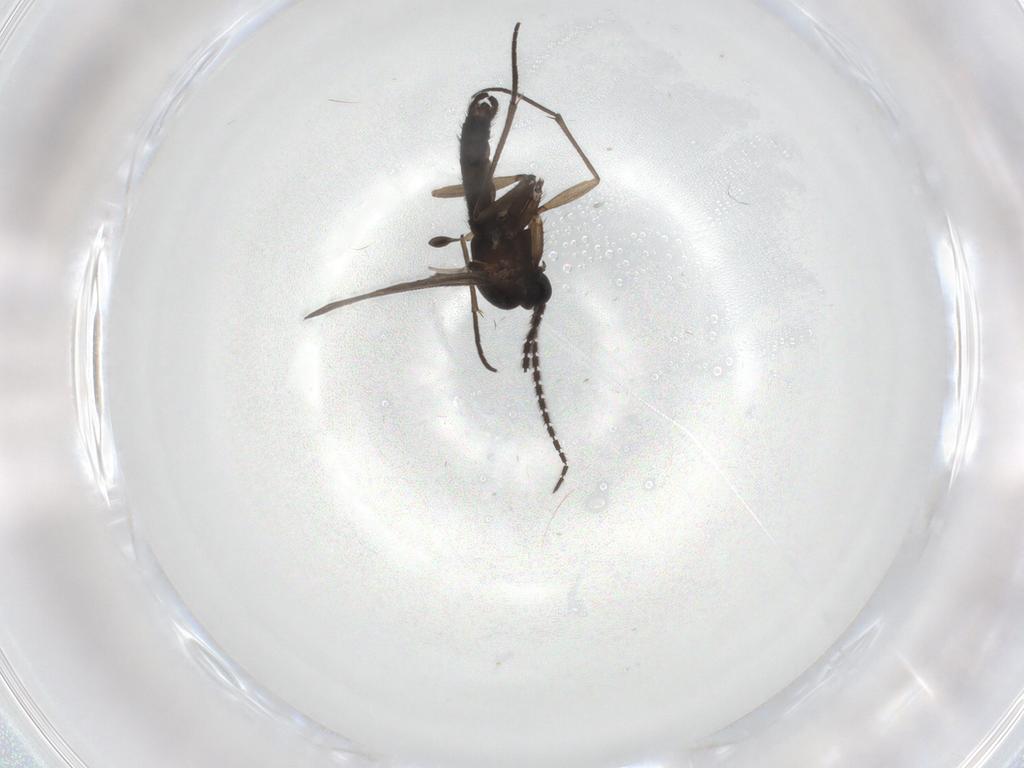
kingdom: Animalia
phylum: Arthropoda
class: Insecta
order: Diptera
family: Sciaridae
